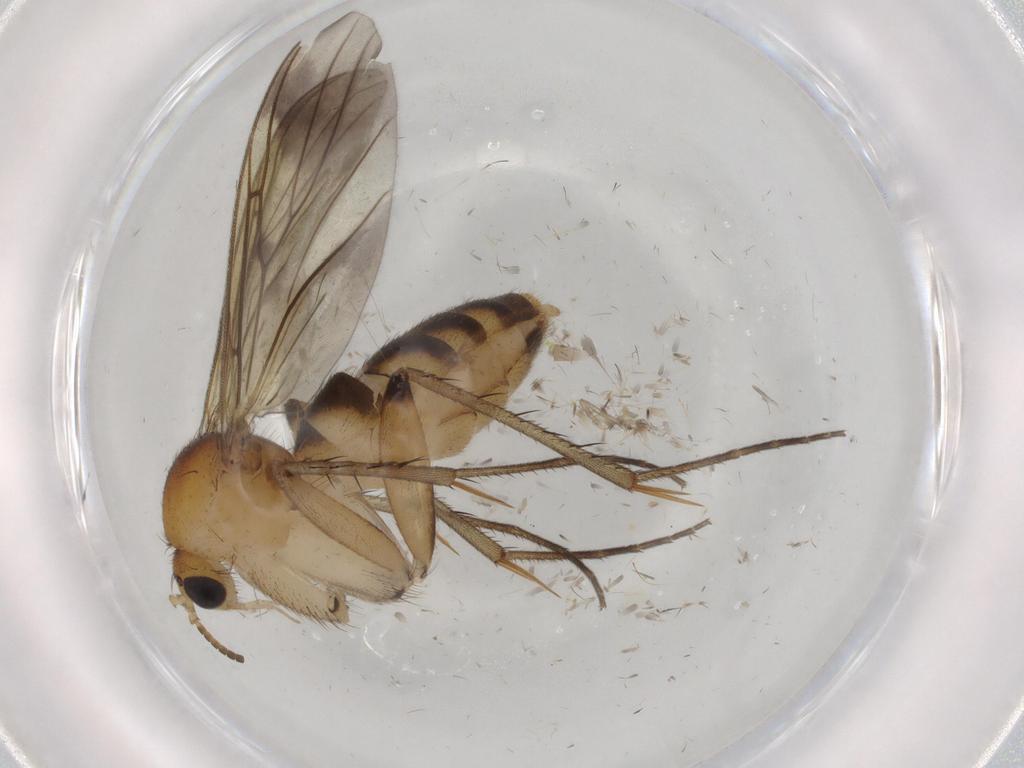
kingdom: Animalia
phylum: Arthropoda
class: Insecta
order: Diptera
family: Mycetophilidae
